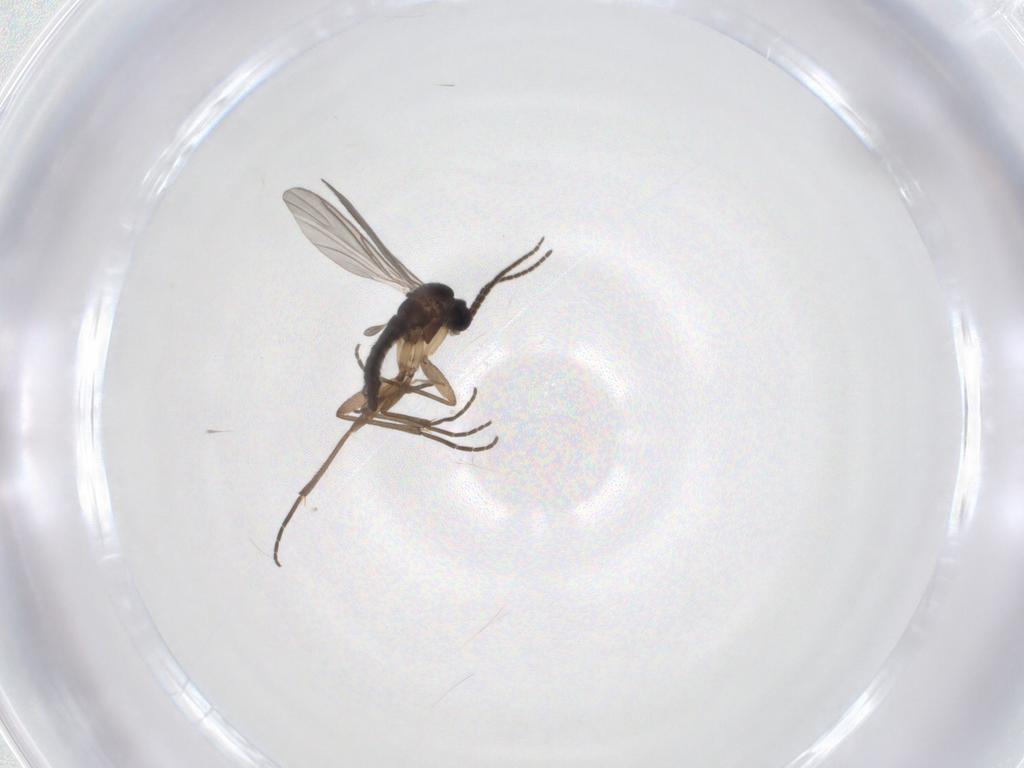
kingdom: Animalia
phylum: Arthropoda
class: Insecta
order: Diptera
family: Chironomidae
